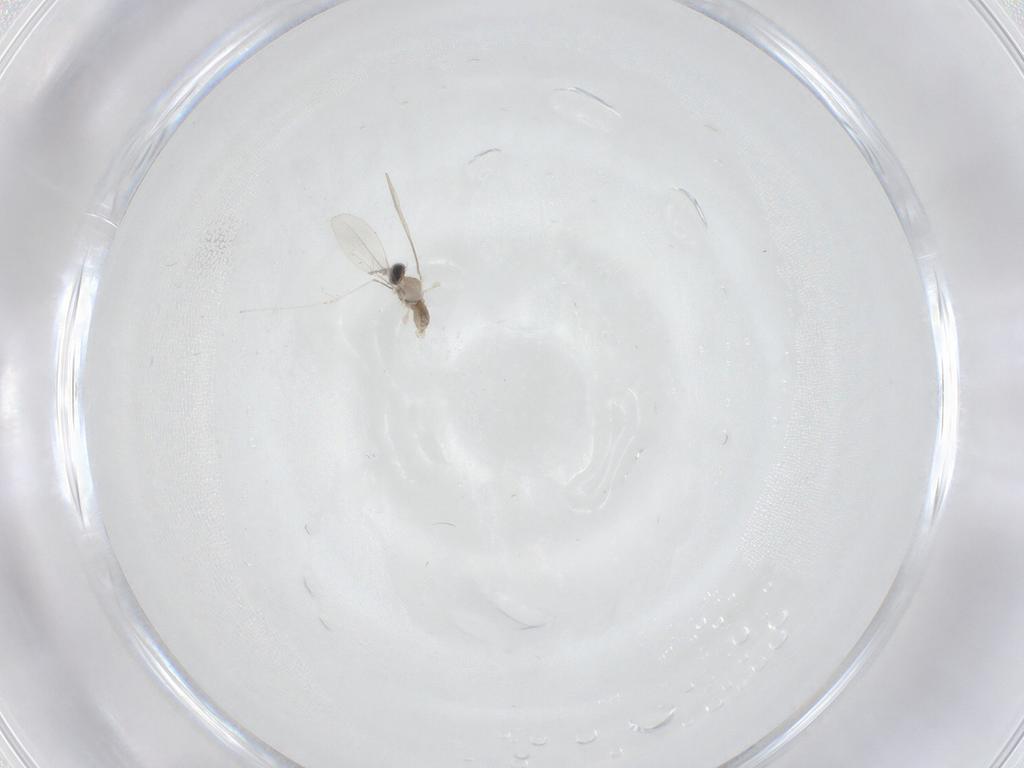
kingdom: Animalia
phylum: Arthropoda
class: Insecta
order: Diptera
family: Cecidomyiidae
